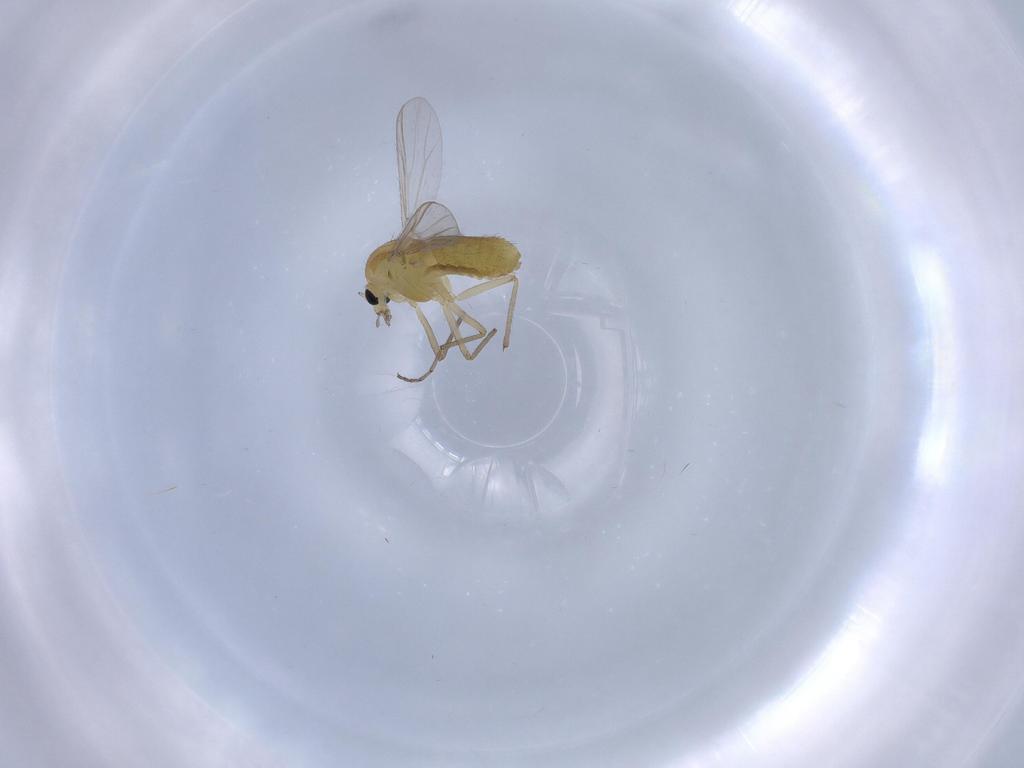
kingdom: Animalia
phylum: Arthropoda
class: Insecta
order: Diptera
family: Chironomidae
